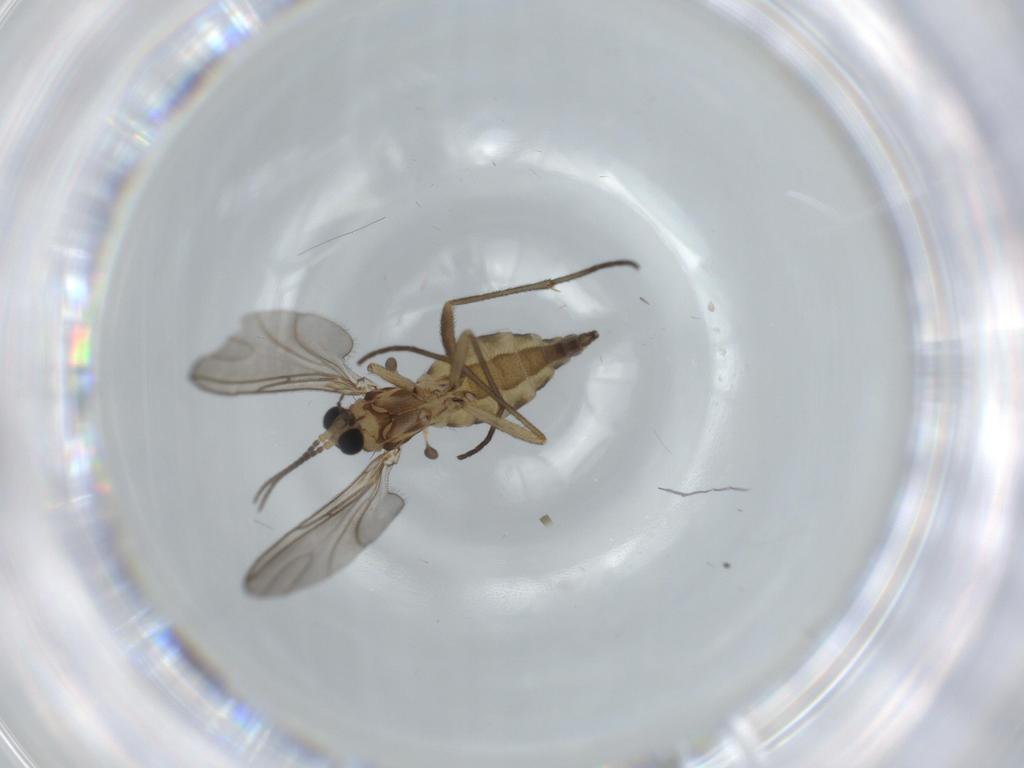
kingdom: Animalia
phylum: Arthropoda
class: Insecta
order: Diptera
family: Sciaridae
